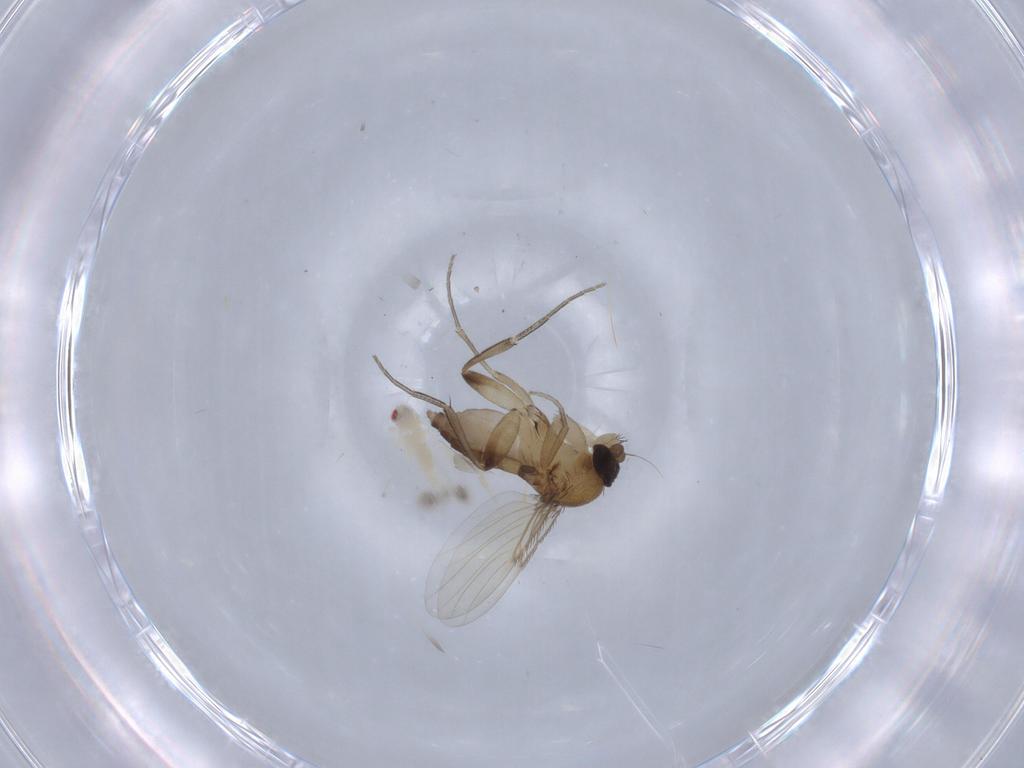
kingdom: Animalia
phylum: Arthropoda
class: Insecta
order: Diptera
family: Phoridae
